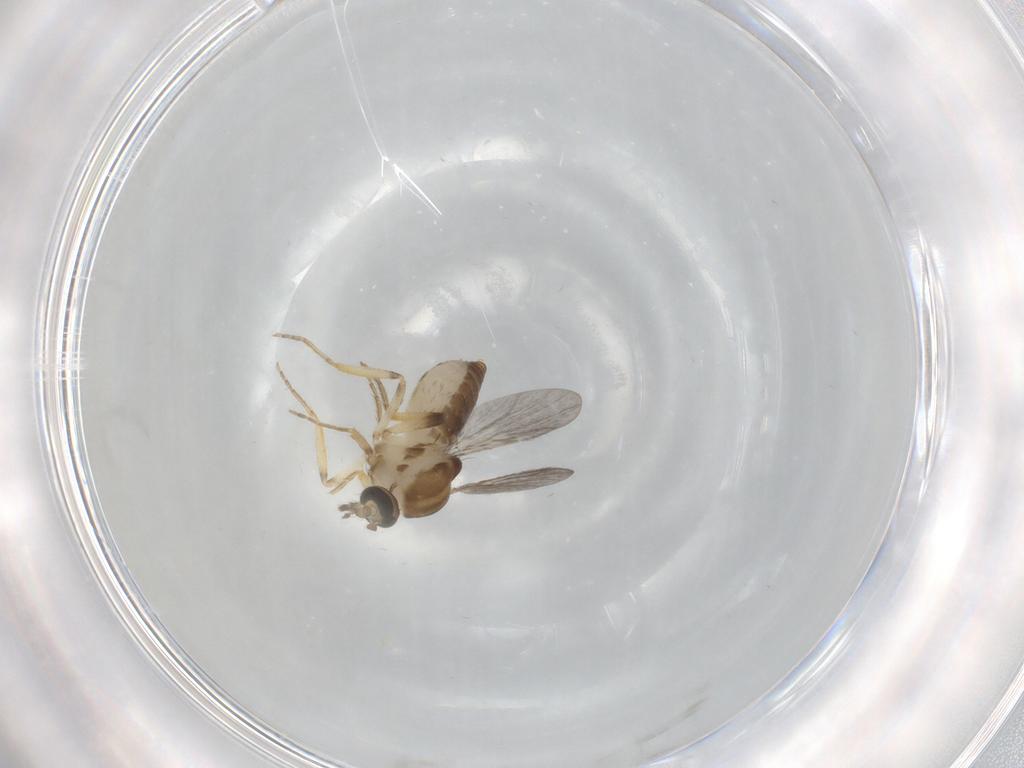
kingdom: Animalia
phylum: Arthropoda
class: Insecta
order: Diptera
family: Ceratopogonidae
